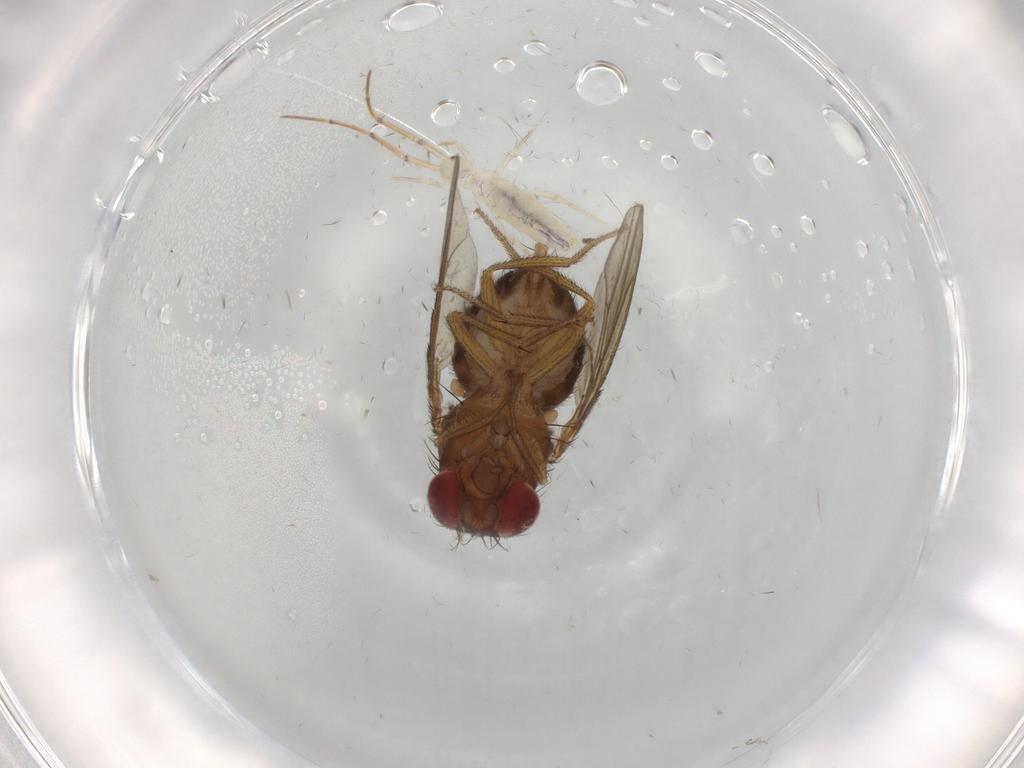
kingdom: Animalia
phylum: Arthropoda
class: Insecta
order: Diptera
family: Drosophilidae
